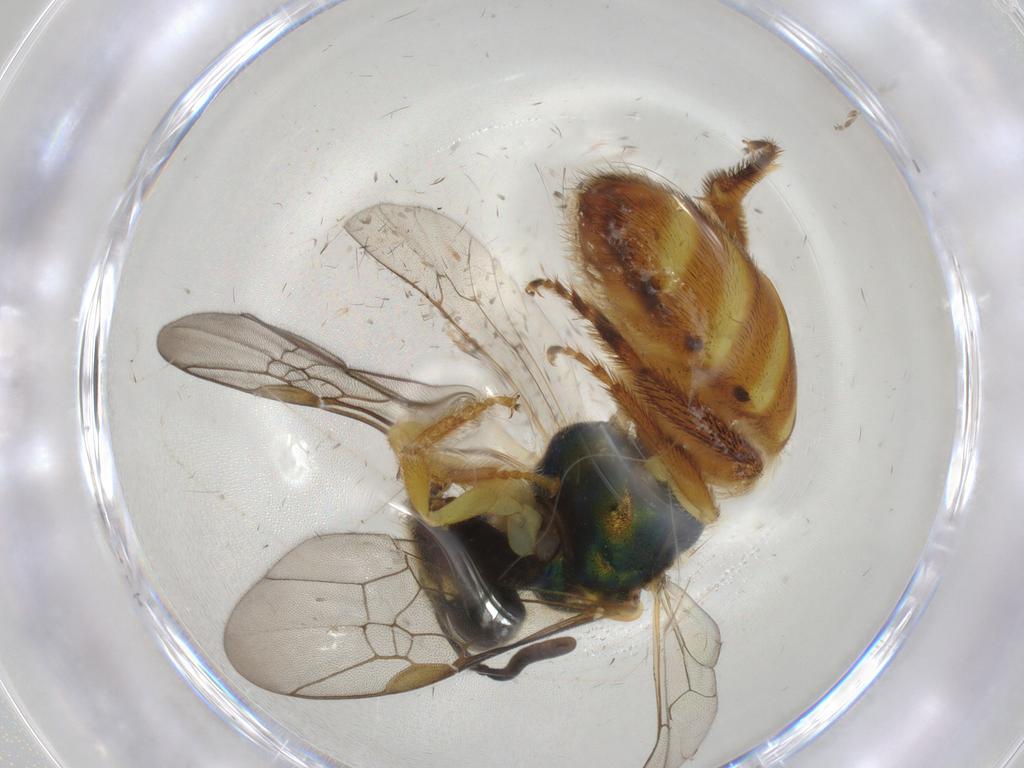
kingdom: Animalia
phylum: Arthropoda
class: Insecta
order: Hymenoptera
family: Halictidae
